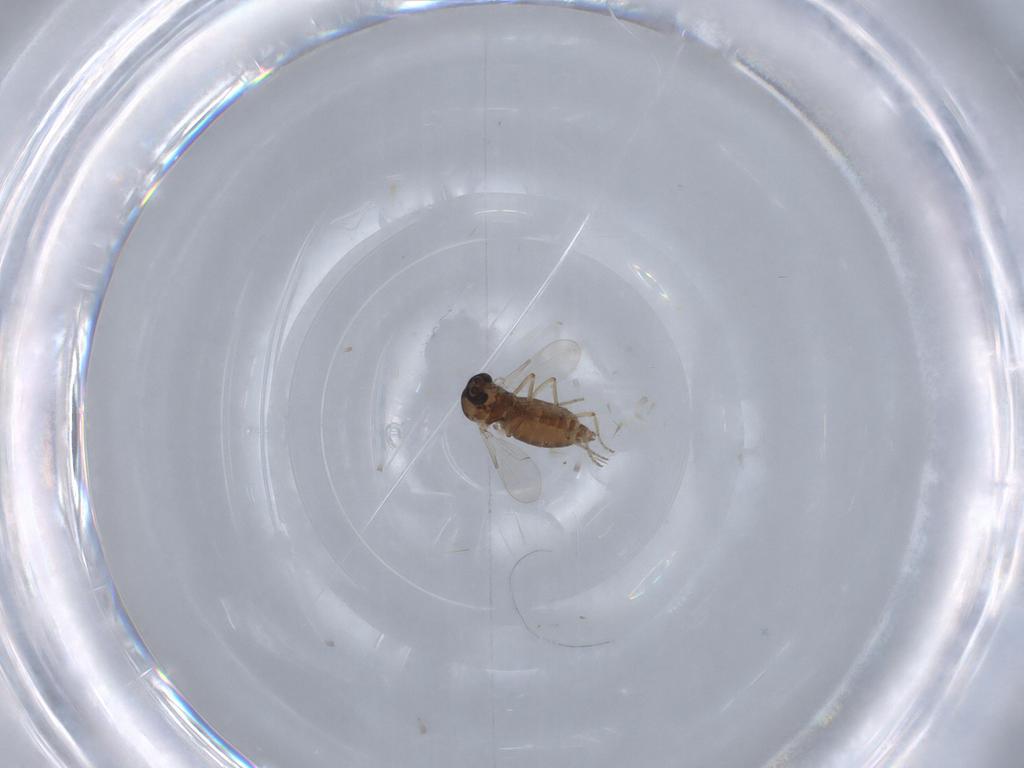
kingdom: Animalia
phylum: Arthropoda
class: Insecta
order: Diptera
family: Ceratopogonidae
